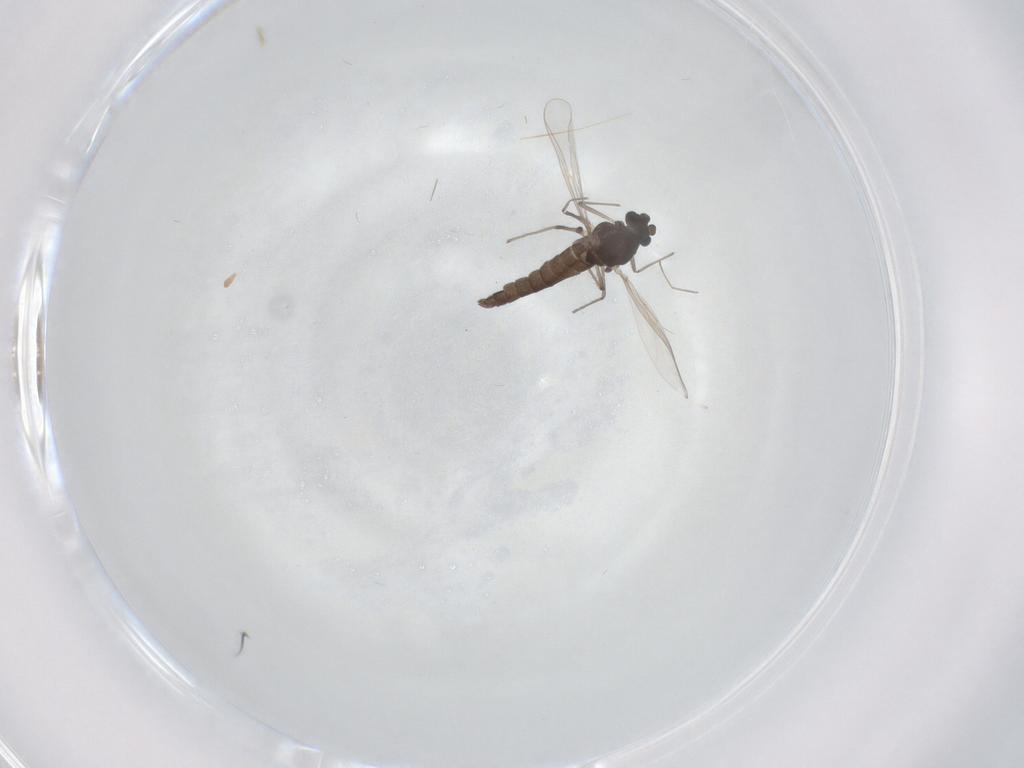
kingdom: Animalia
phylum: Arthropoda
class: Insecta
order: Diptera
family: Chironomidae
